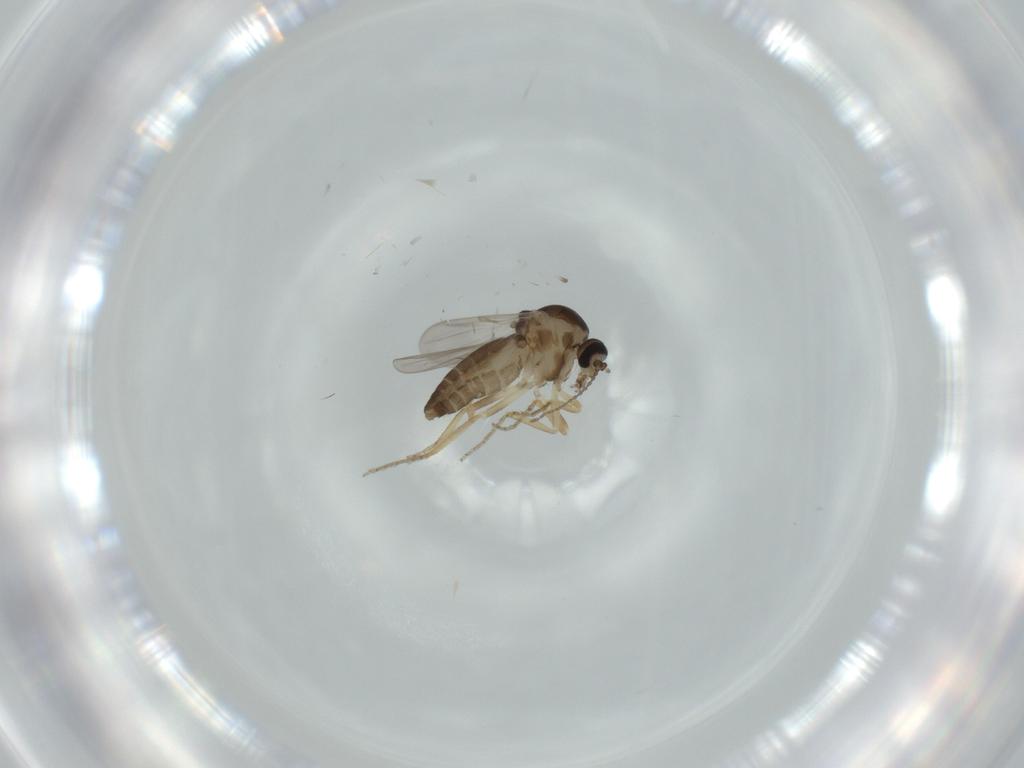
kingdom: Animalia
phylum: Arthropoda
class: Insecta
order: Diptera
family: Ceratopogonidae
